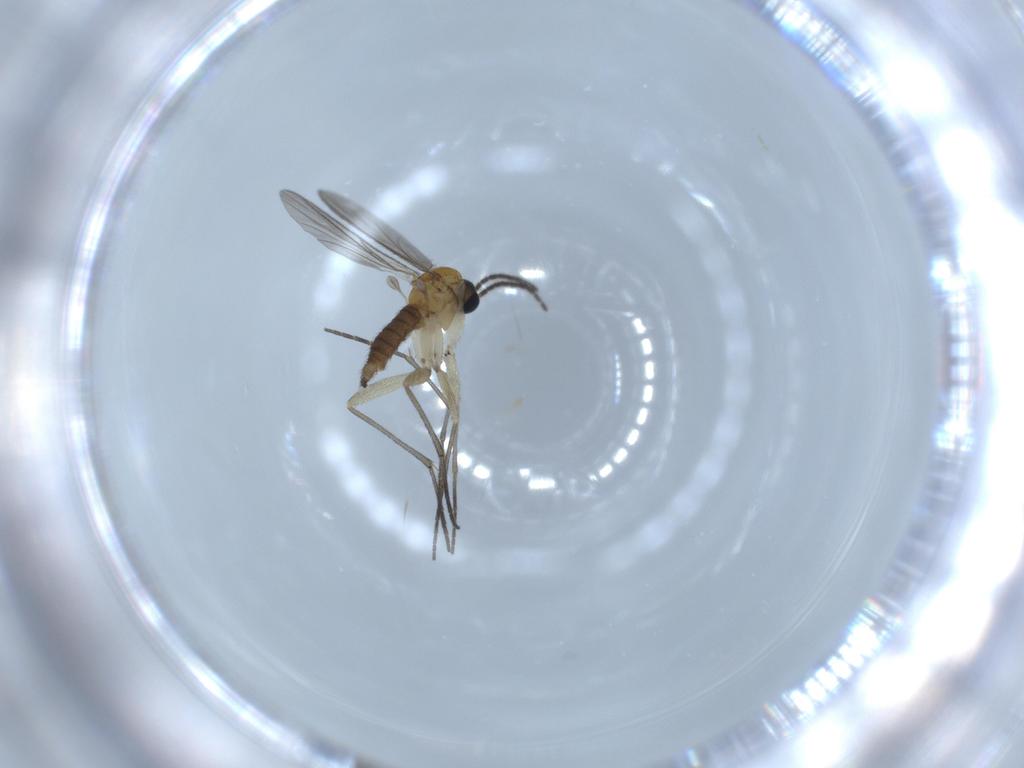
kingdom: Animalia
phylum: Arthropoda
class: Insecta
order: Diptera
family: Sciaridae
